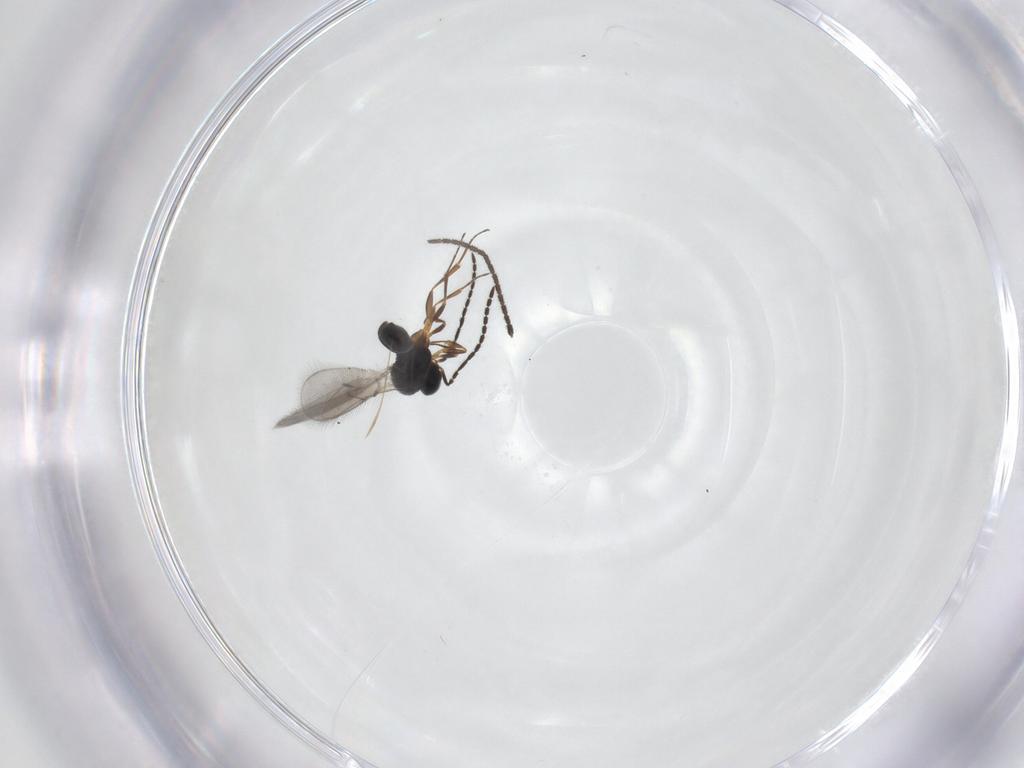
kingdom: Animalia
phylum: Arthropoda
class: Insecta
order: Hymenoptera
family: Scelionidae
